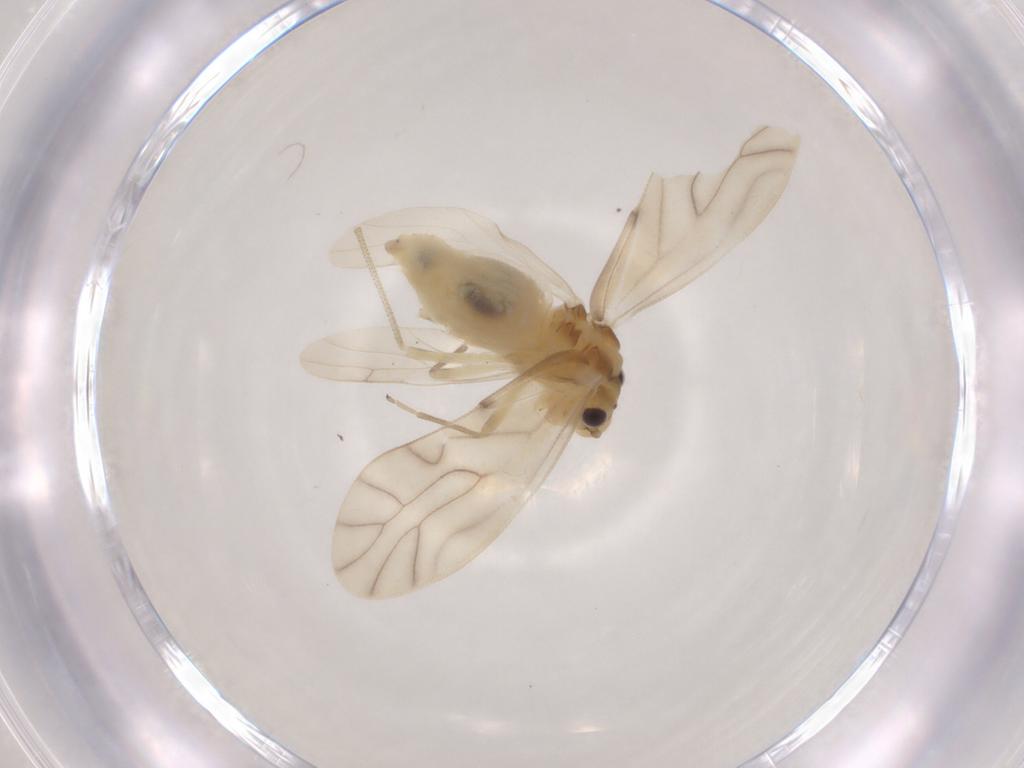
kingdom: Animalia
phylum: Arthropoda
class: Insecta
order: Psocodea
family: Caeciliusidae
